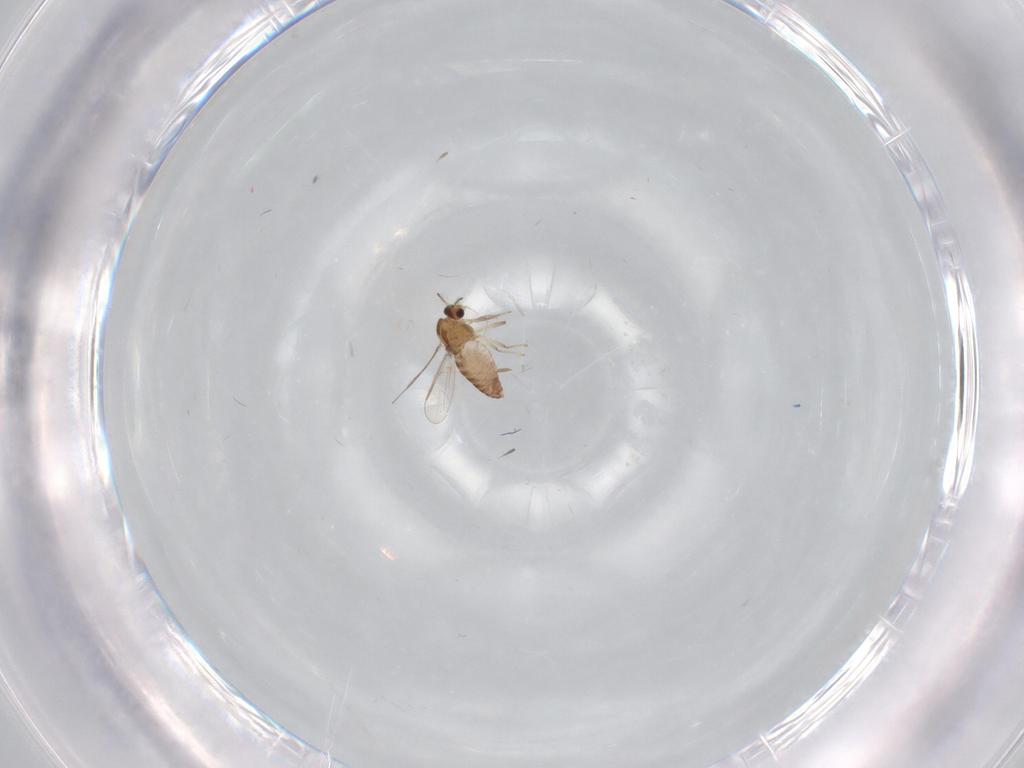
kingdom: Animalia
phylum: Arthropoda
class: Insecta
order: Diptera
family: Chironomidae
